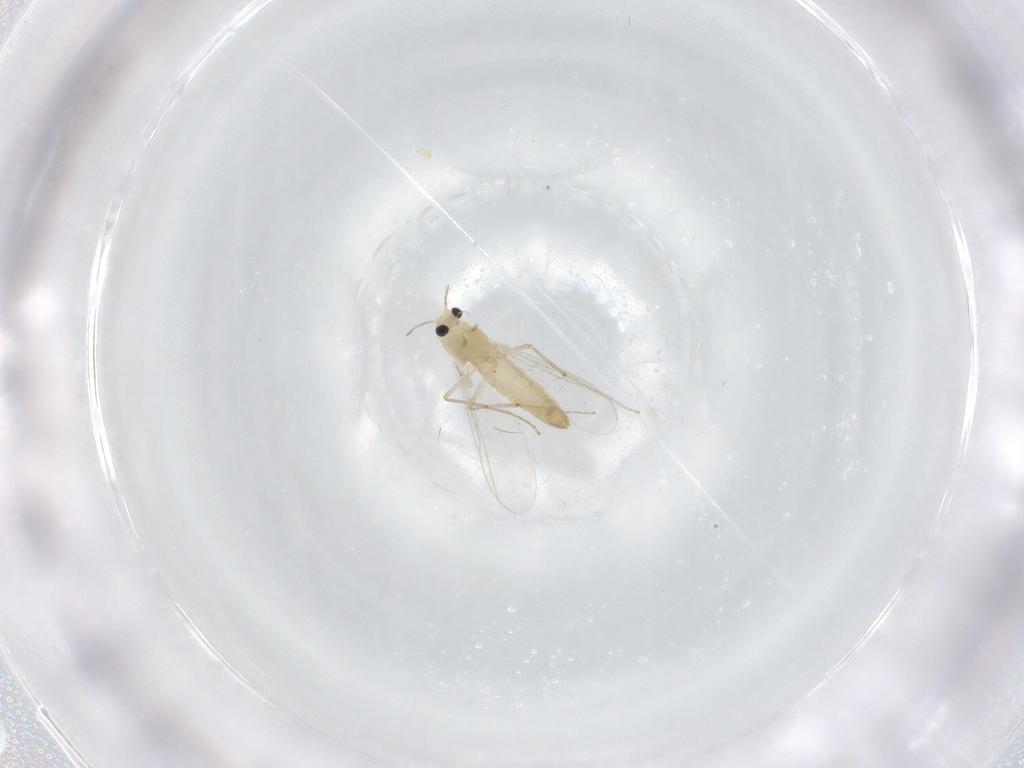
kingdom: Animalia
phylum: Arthropoda
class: Insecta
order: Diptera
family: Chironomidae
